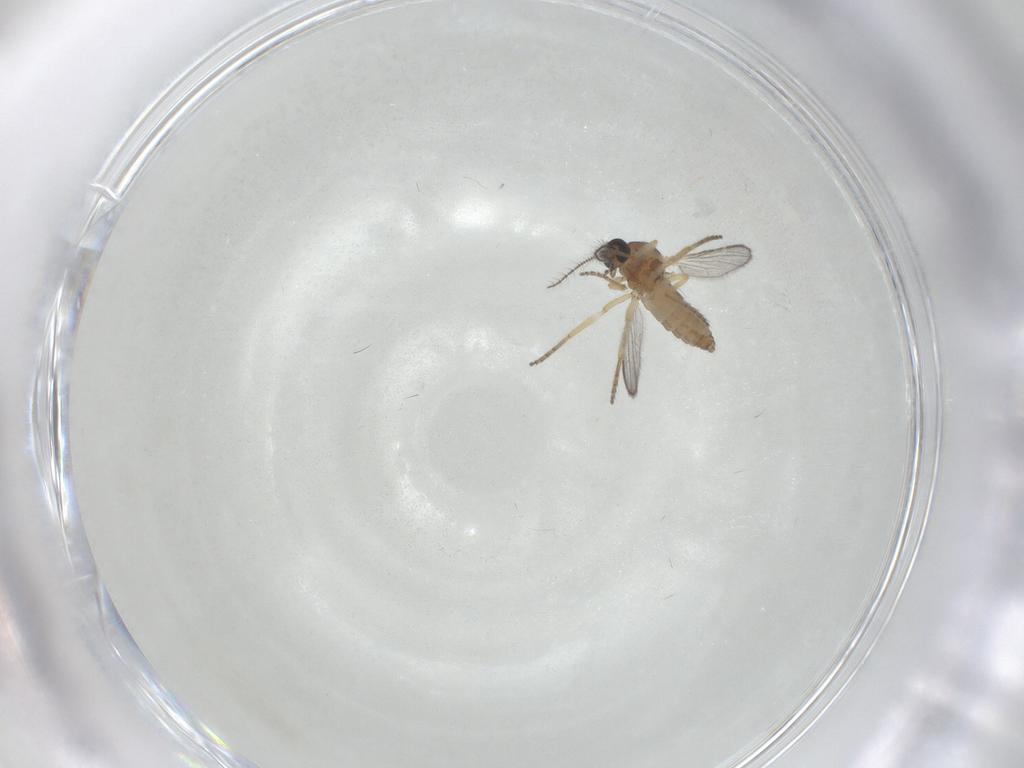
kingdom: Animalia
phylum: Arthropoda
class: Insecta
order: Diptera
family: Ceratopogonidae
